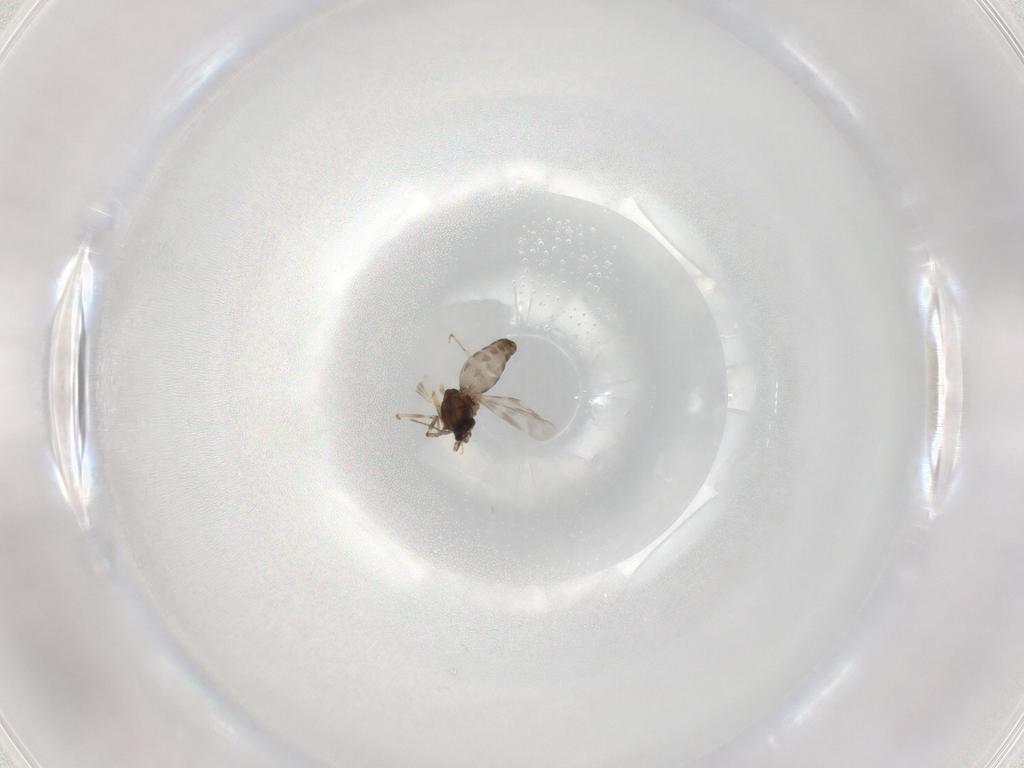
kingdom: Animalia
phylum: Arthropoda
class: Insecta
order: Diptera
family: Ceratopogonidae
